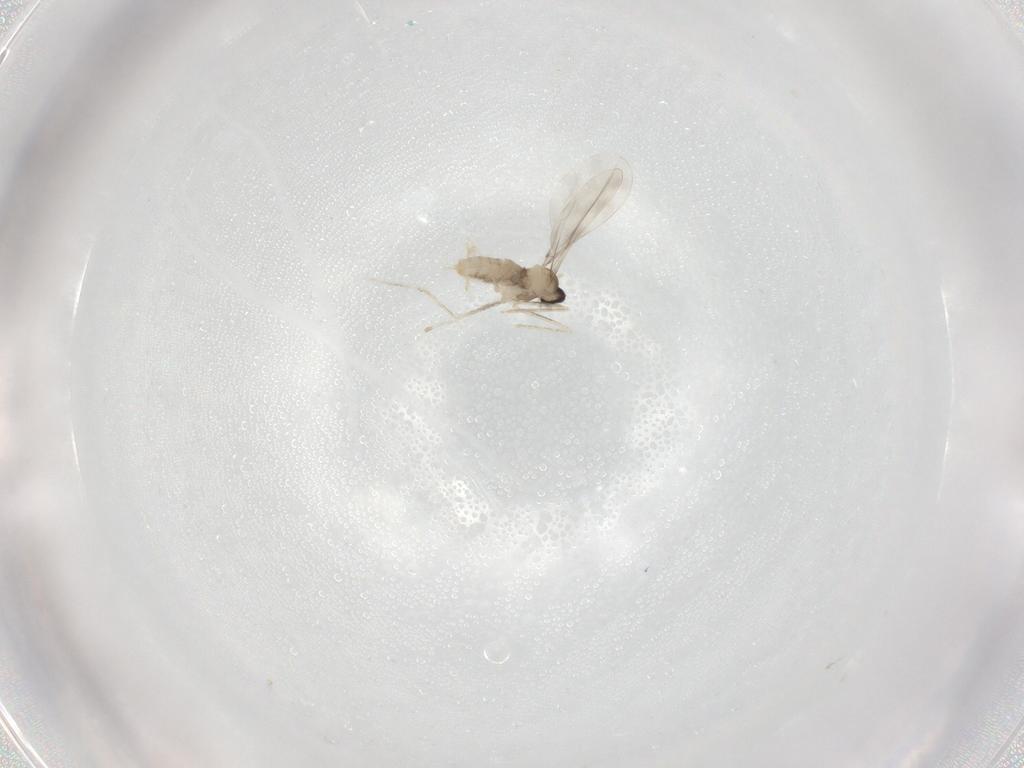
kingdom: Animalia
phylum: Arthropoda
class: Insecta
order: Diptera
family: Cecidomyiidae
